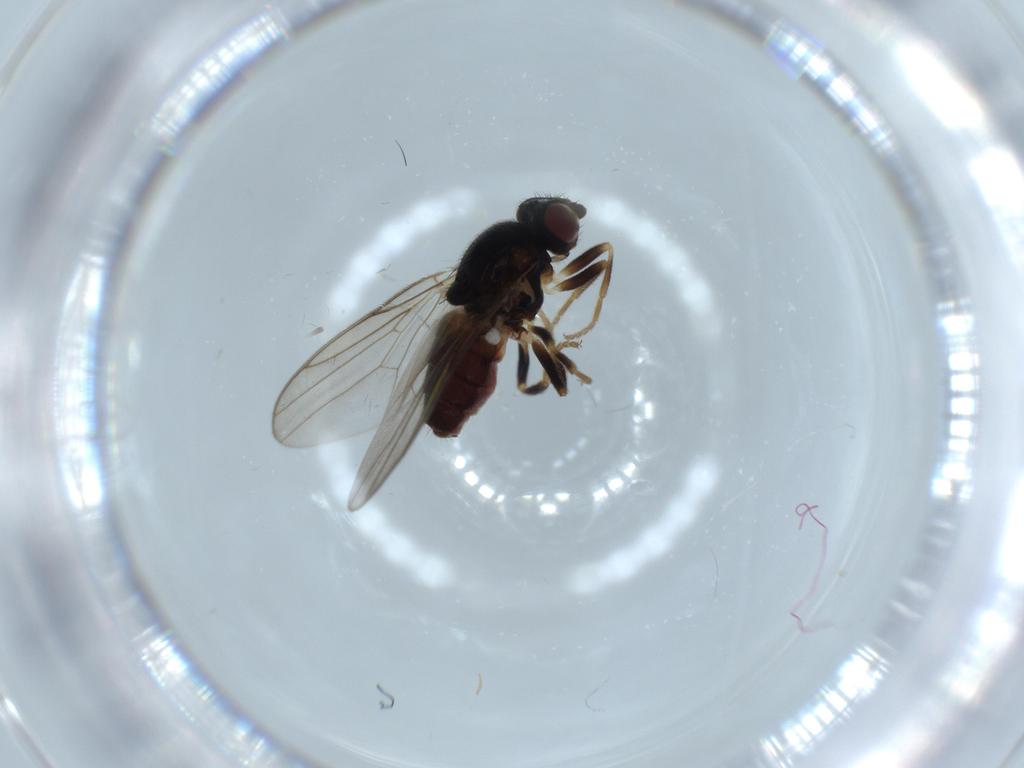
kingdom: Animalia
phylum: Arthropoda
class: Insecta
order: Diptera
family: Chloropidae
